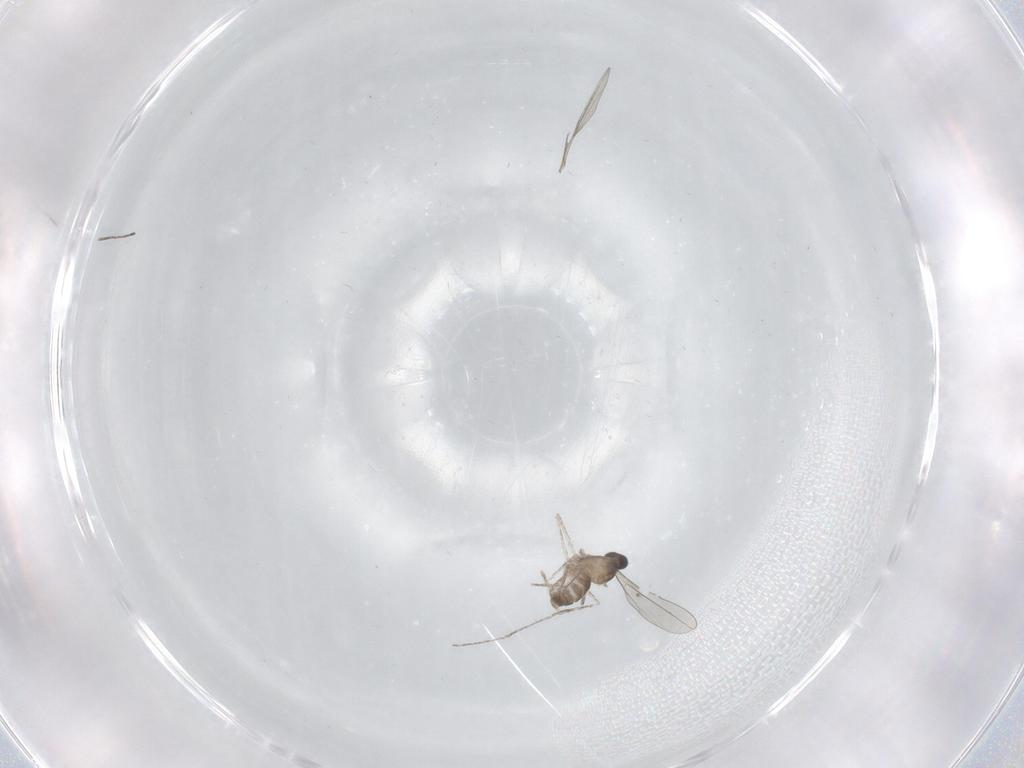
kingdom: Animalia
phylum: Arthropoda
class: Insecta
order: Diptera
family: Cecidomyiidae
